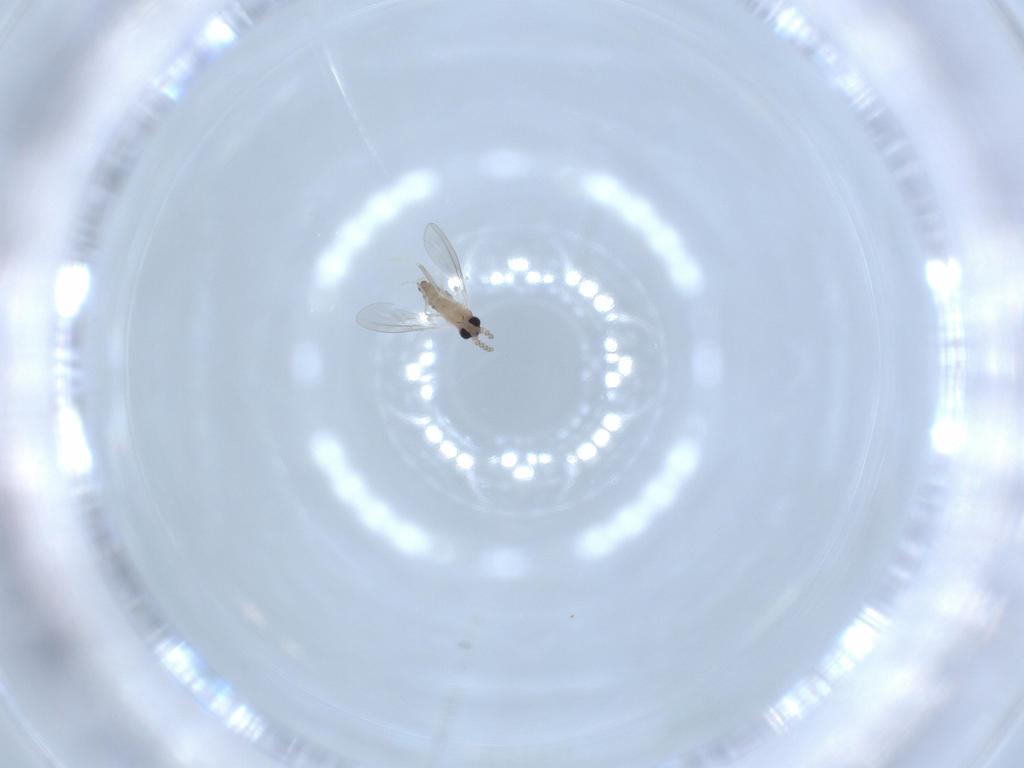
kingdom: Animalia
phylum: Arthropoda
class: Insecta
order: Diptera
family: Cecidomyiidae
